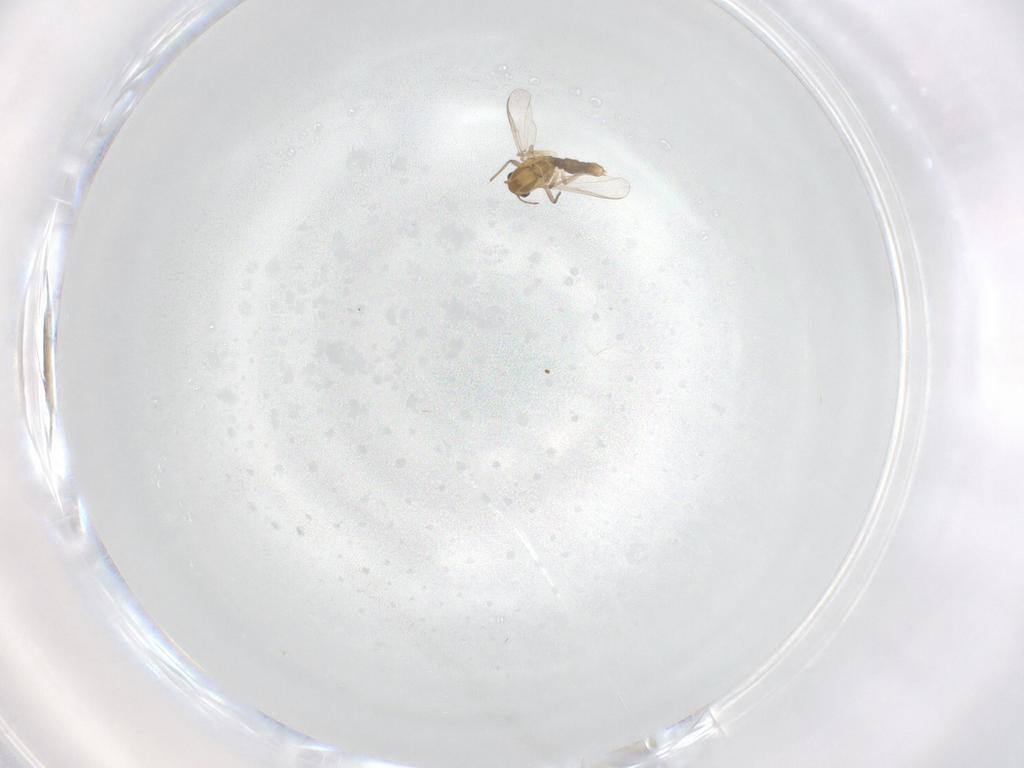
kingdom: Animalia
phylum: Arthropoda
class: Insecta
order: Diptera
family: Chironomidae
